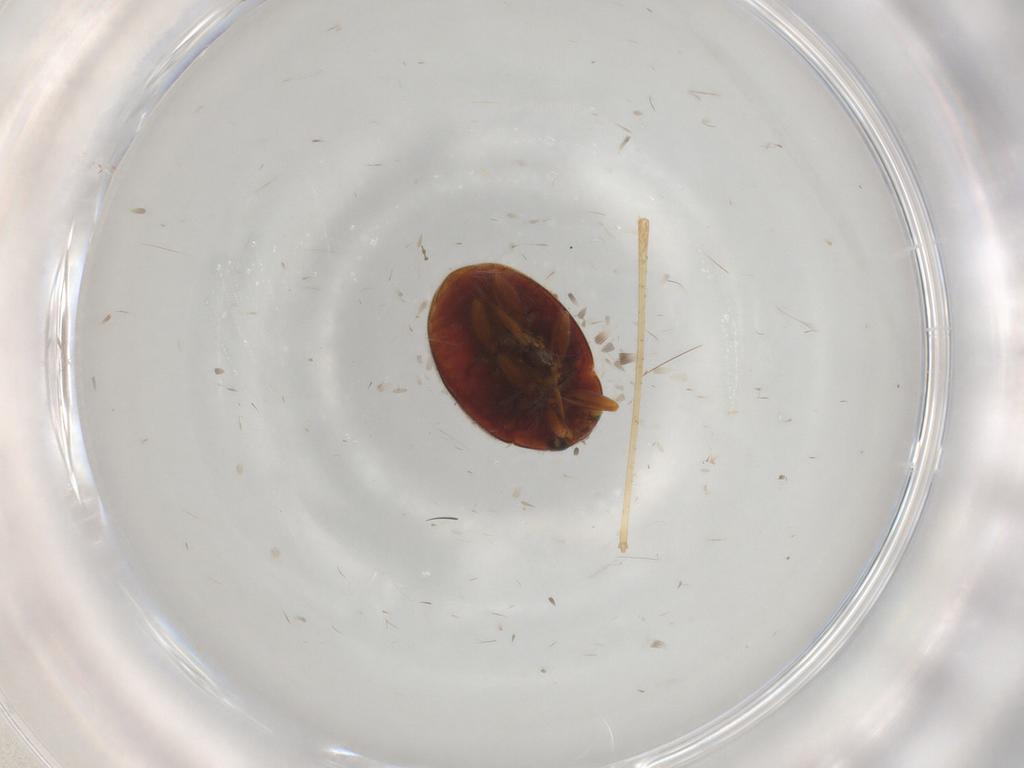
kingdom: Animalia
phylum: Arthropoda
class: Insecta
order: Coleoptera
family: Coccinellidae
